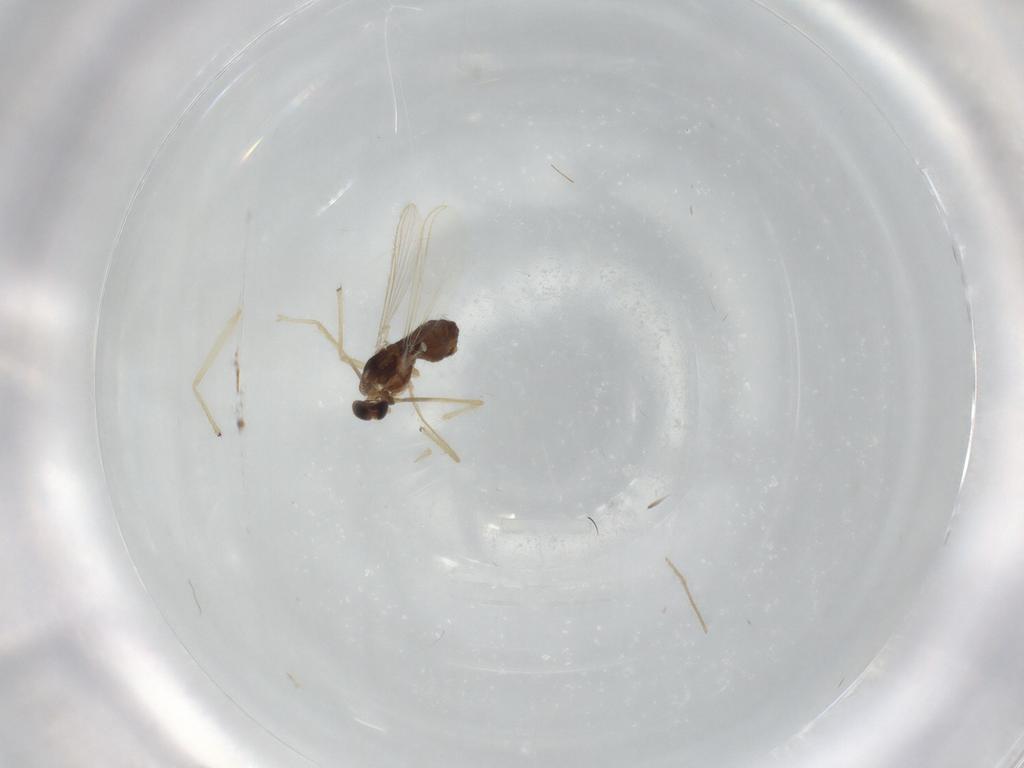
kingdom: Animalia
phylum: Arthropoda
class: Insecta
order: Diptera
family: Chironomidae
